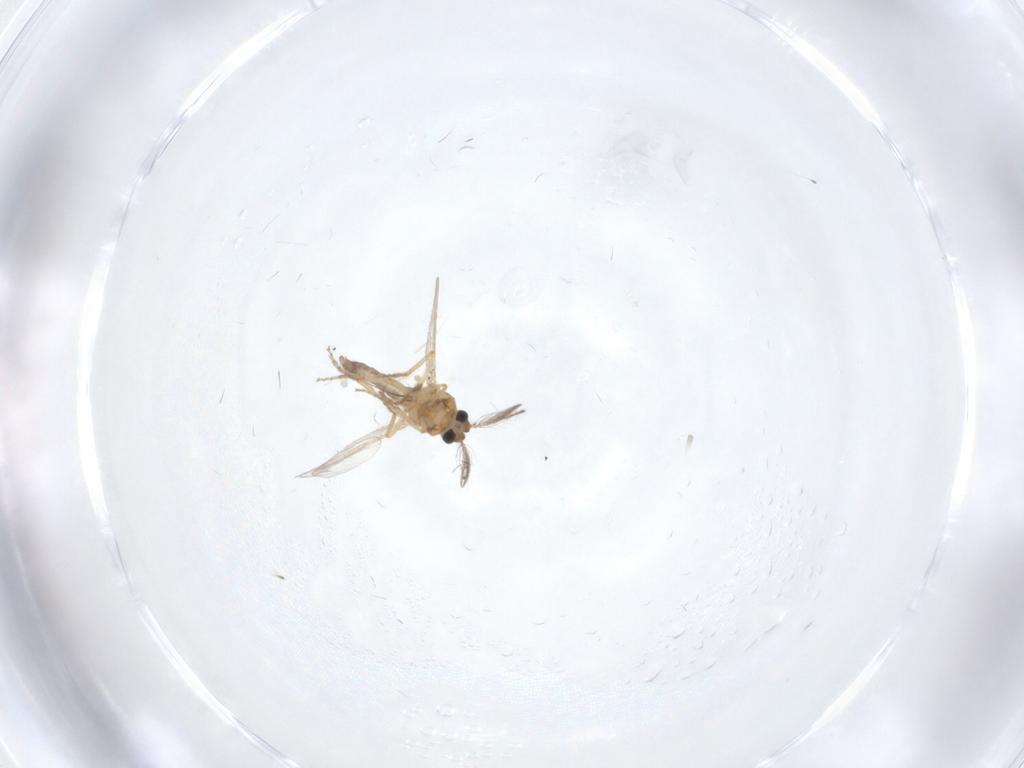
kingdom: Animalia
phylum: Arthropoda
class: Insecta
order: Diptera
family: Ceratopogonidae
